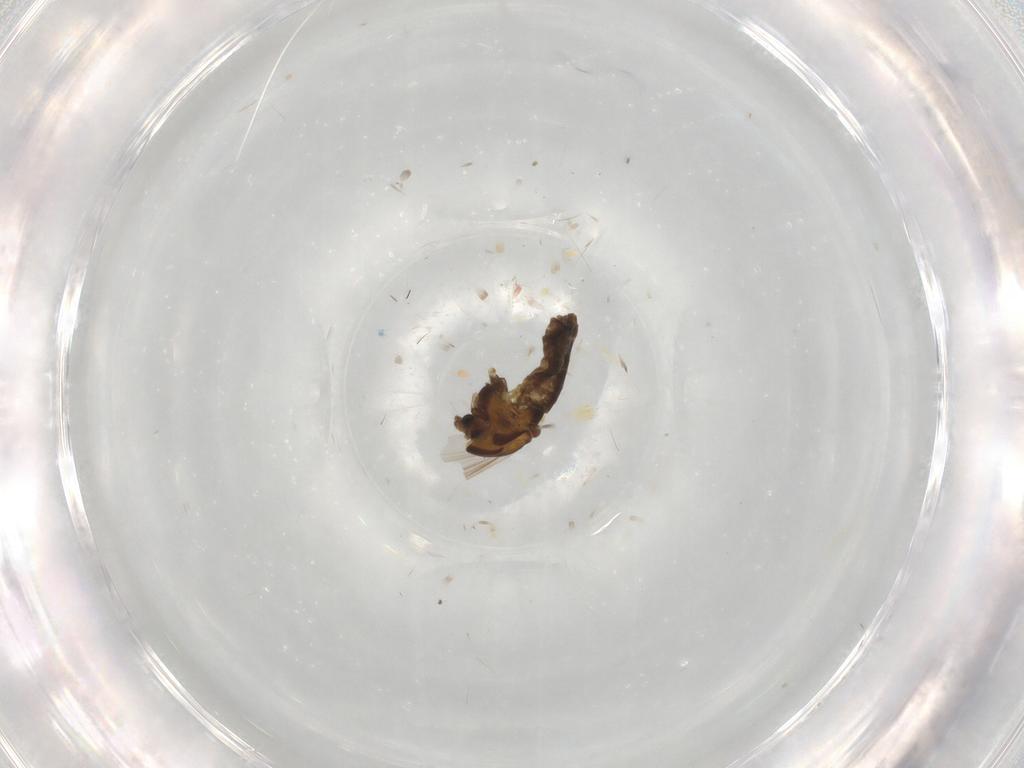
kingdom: Animalia
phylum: Arthropoda
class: Insecta
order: Diptera
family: Chironomidae
